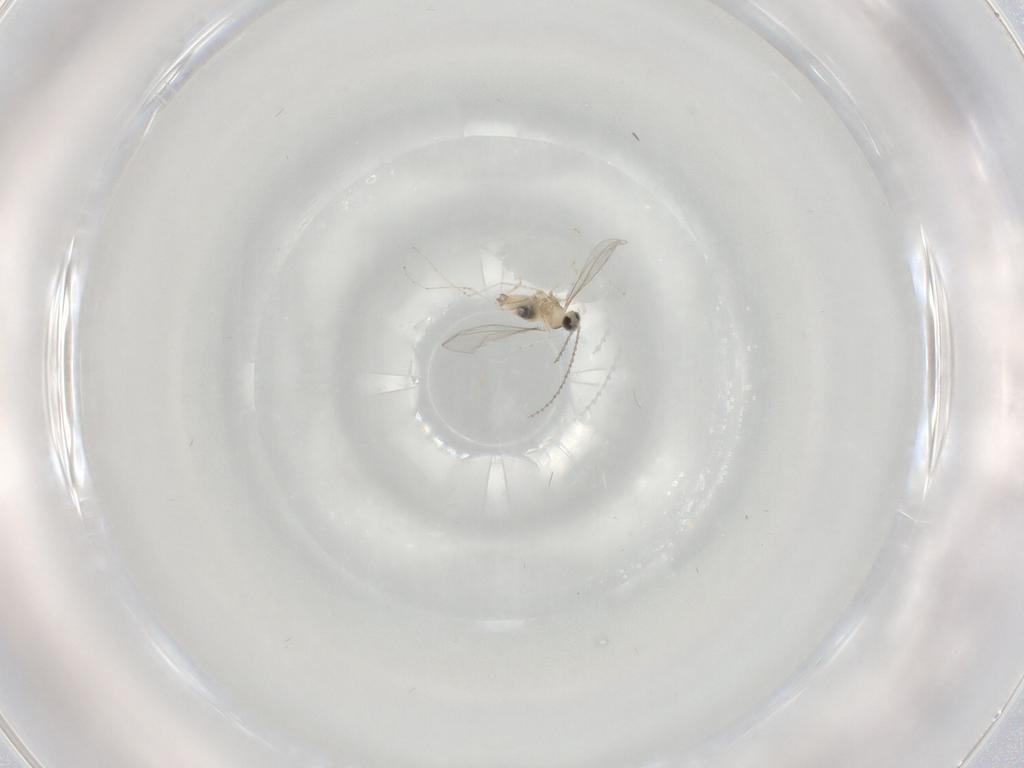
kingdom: Animalia
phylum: Arthropoda
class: Insecta
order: Diptera
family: Cecidomyiidae
